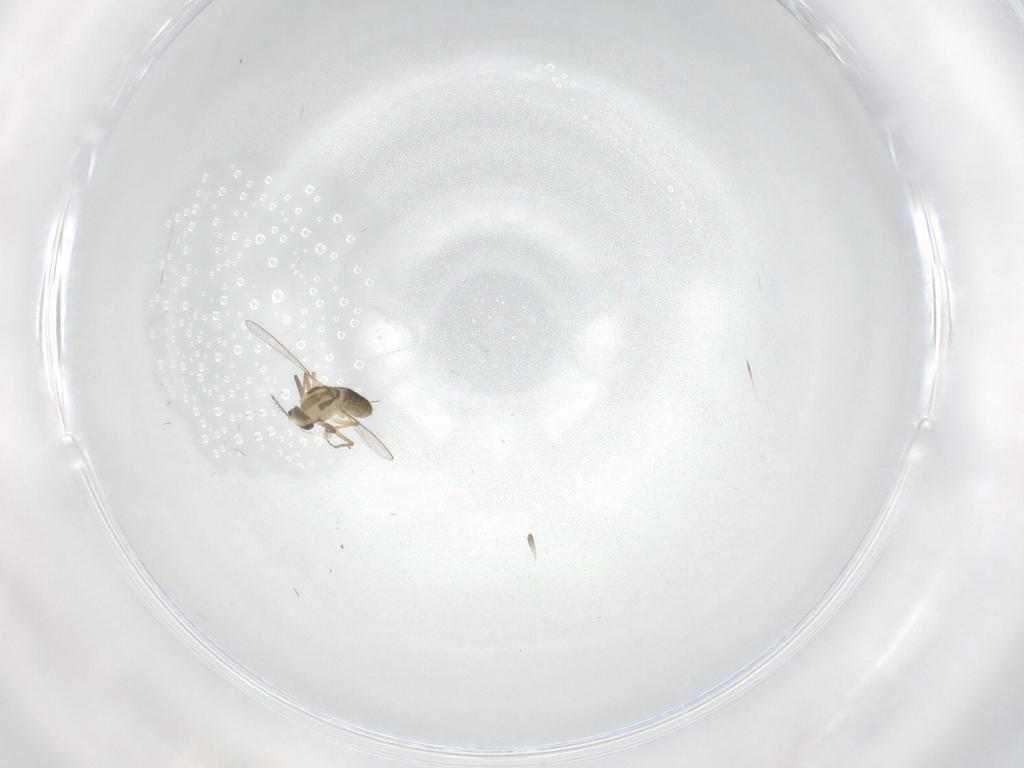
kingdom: Animalia
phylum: Arthropoda
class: Insecta
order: Diptera
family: Chironomidae
